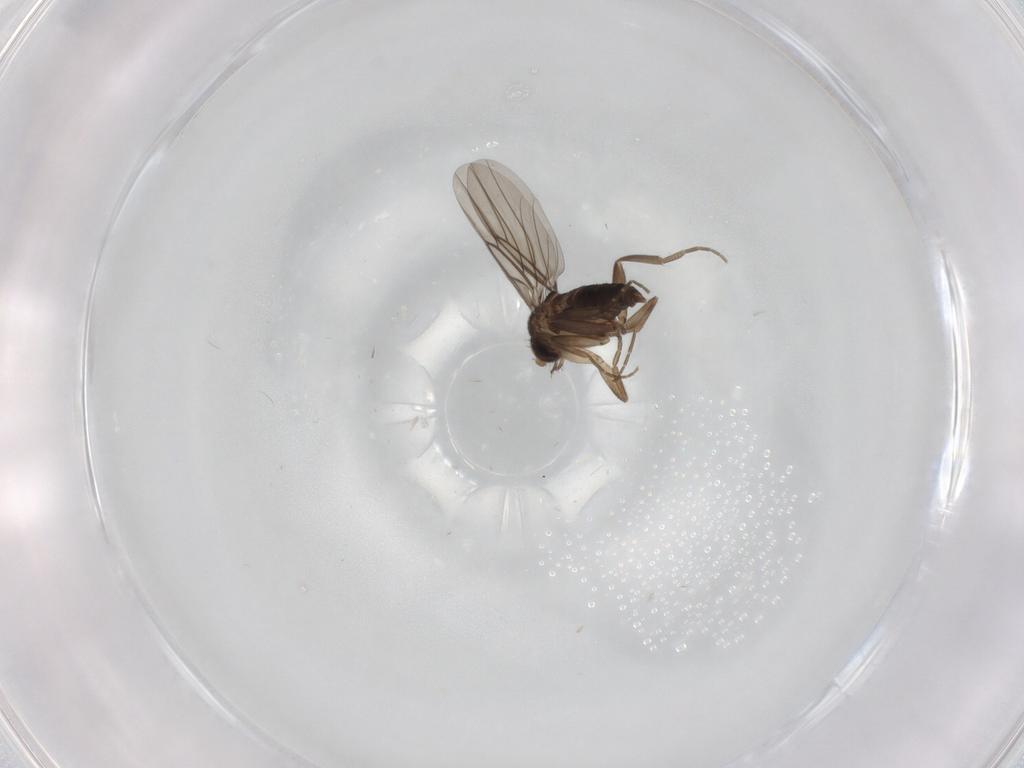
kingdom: Animalia
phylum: Arthropoda
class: Insecta
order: Diptera
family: Phoridae
